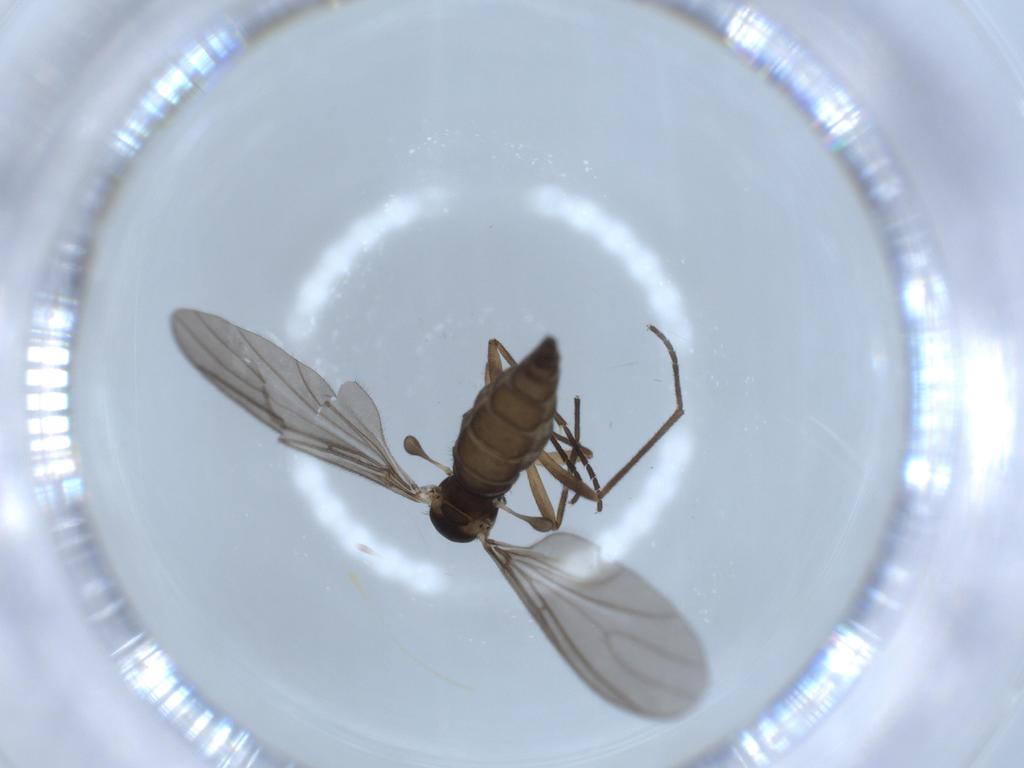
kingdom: Animalia
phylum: Arthropoda
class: Insecta
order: Diptera
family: Sciaridae
